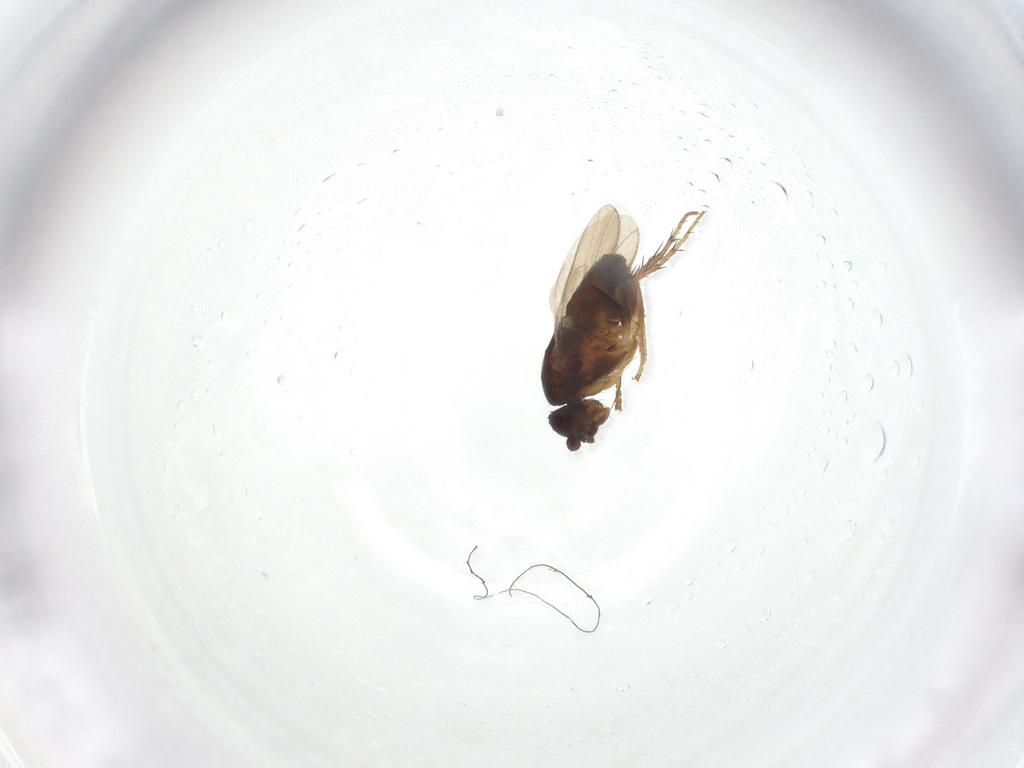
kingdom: Animalia
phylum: Arthropoda
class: Insecta
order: Diptera
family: Sphaeroceridae
